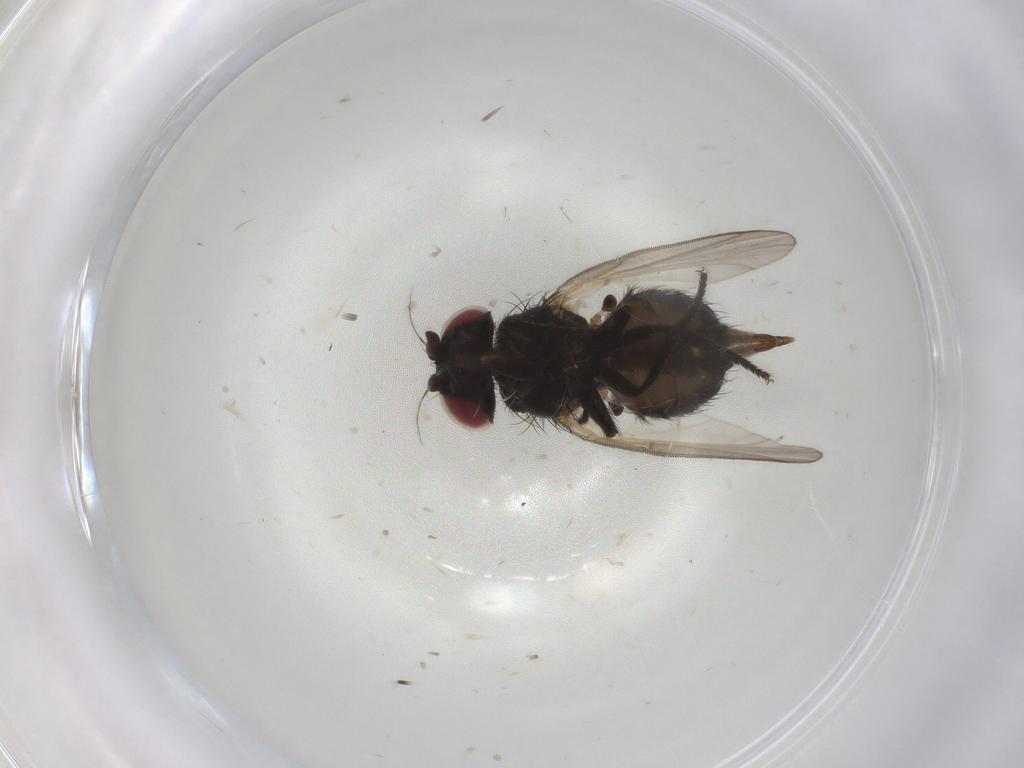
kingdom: Animalia
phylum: Arthropoda
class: Insecta
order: Diptera
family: Lonchaeidae
